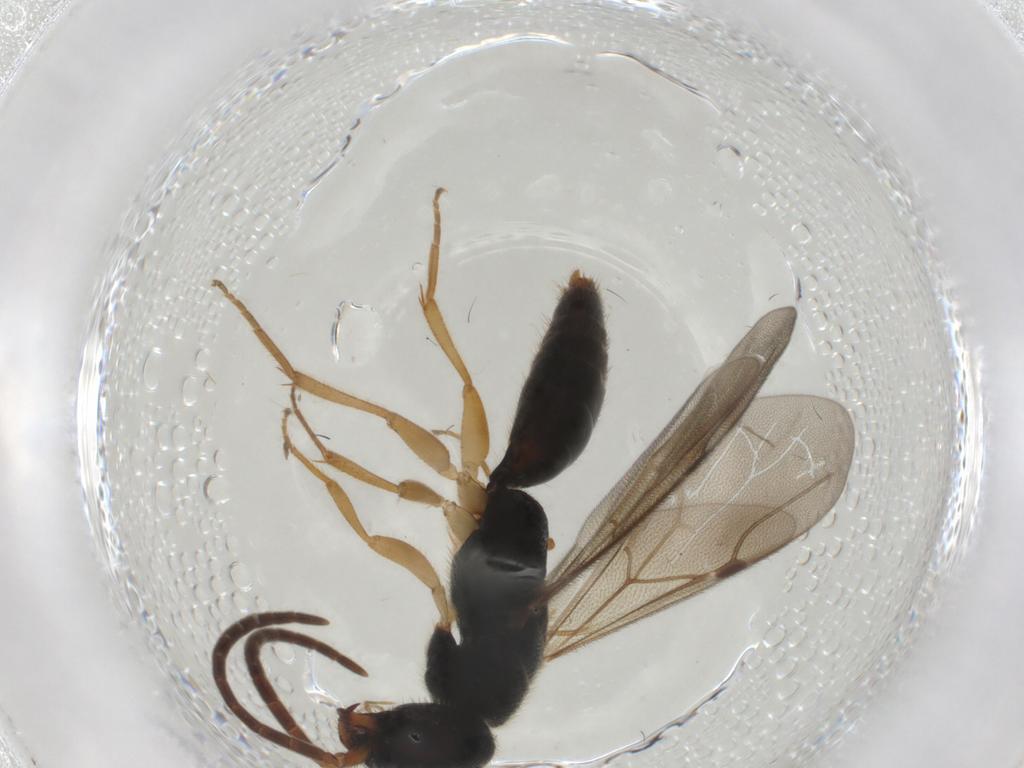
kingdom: Animalia
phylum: Arthropoda
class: Insecta
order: Hymenoptera
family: Bethylidae
